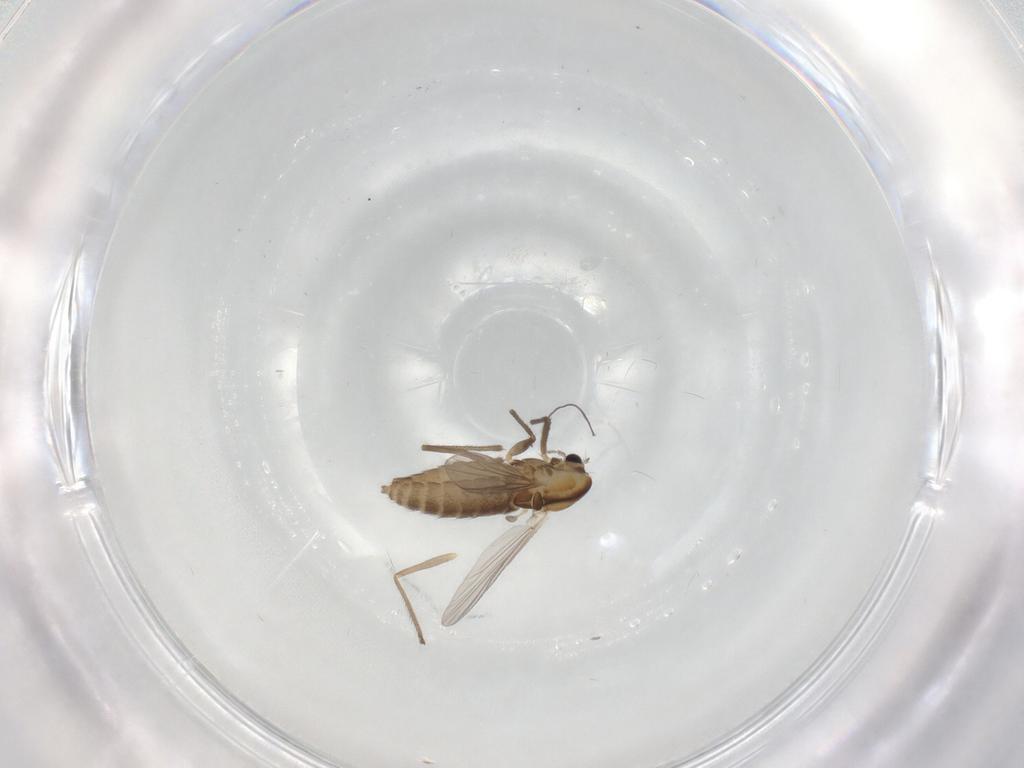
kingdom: Animalia
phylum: Arthropoda
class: Insecta
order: Diptera
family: Chironomidae
